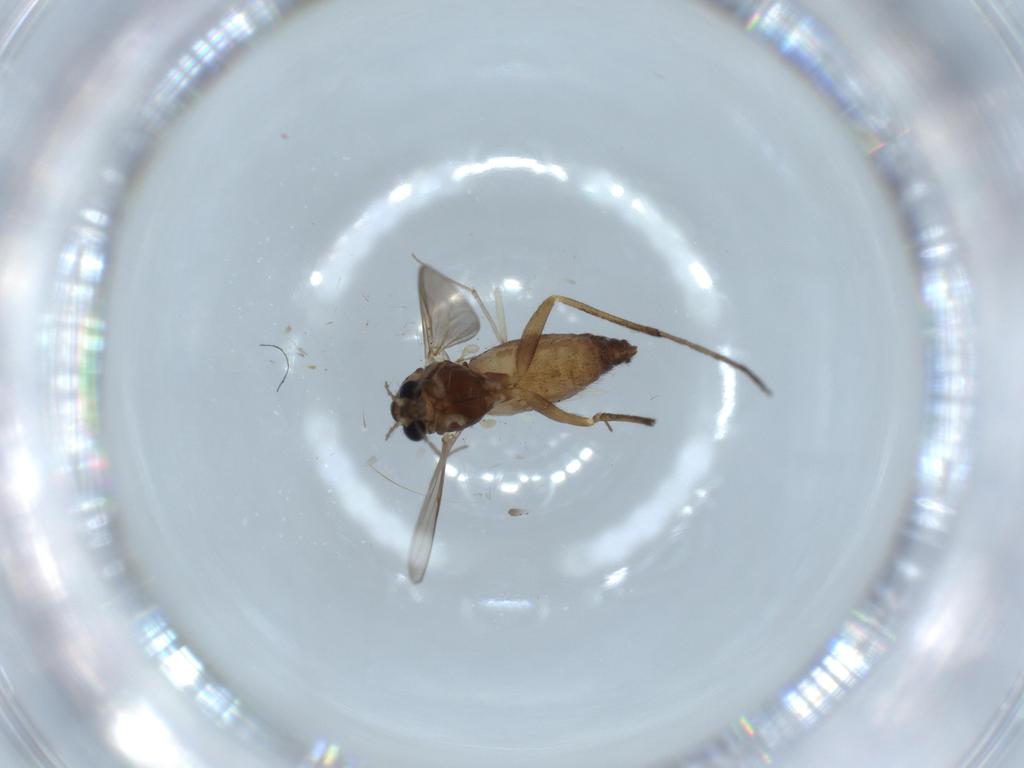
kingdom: Animalia
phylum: Arthropoda
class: Insecta
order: Diptera
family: Chironomidae
